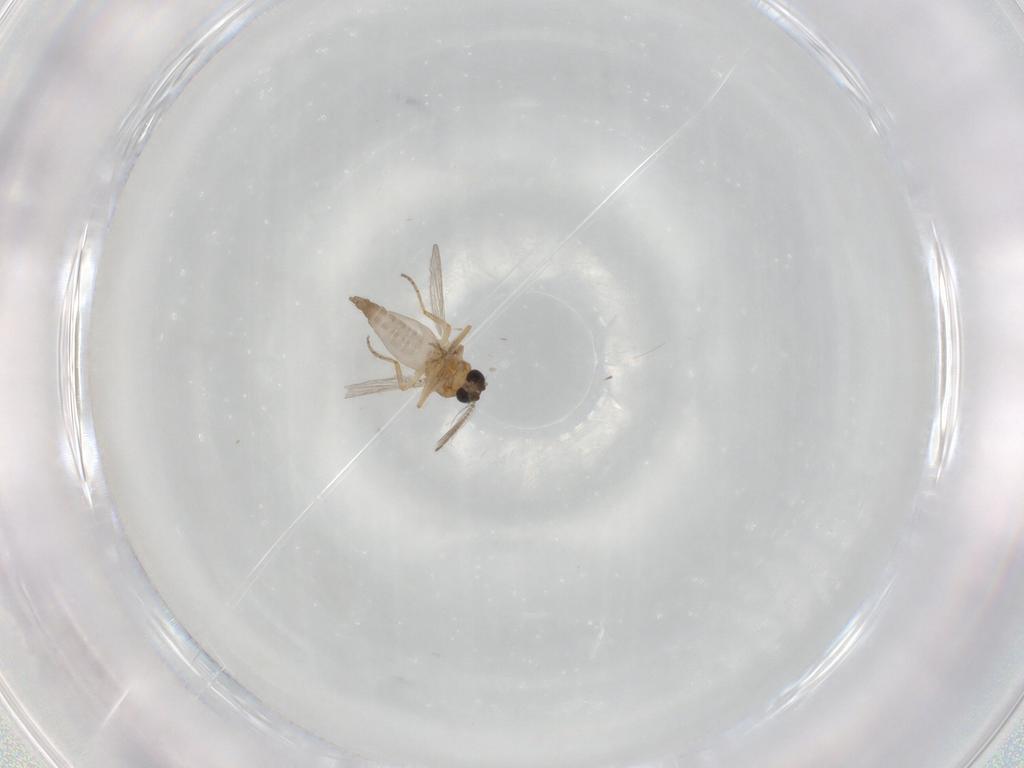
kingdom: Animalia
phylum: Arthropoda
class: Insecta
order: Diptera
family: Ceratopogonidae
